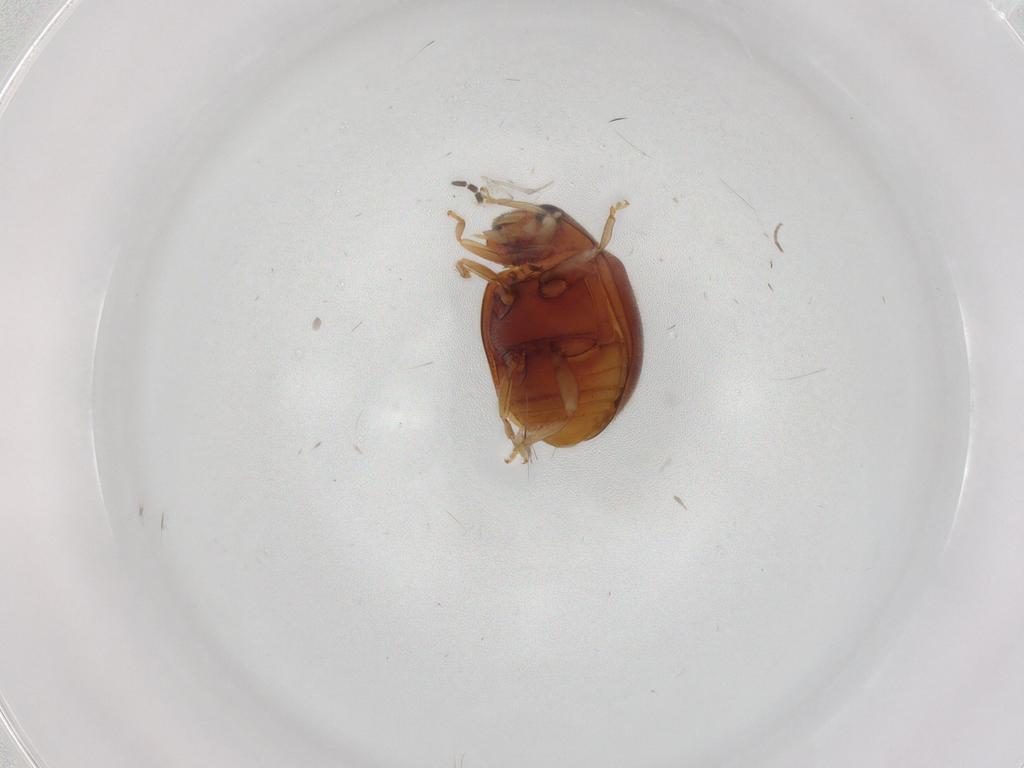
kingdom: Animalia
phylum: Arthropoda
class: Insecta
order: Coleoptera
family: Coccinellidae
